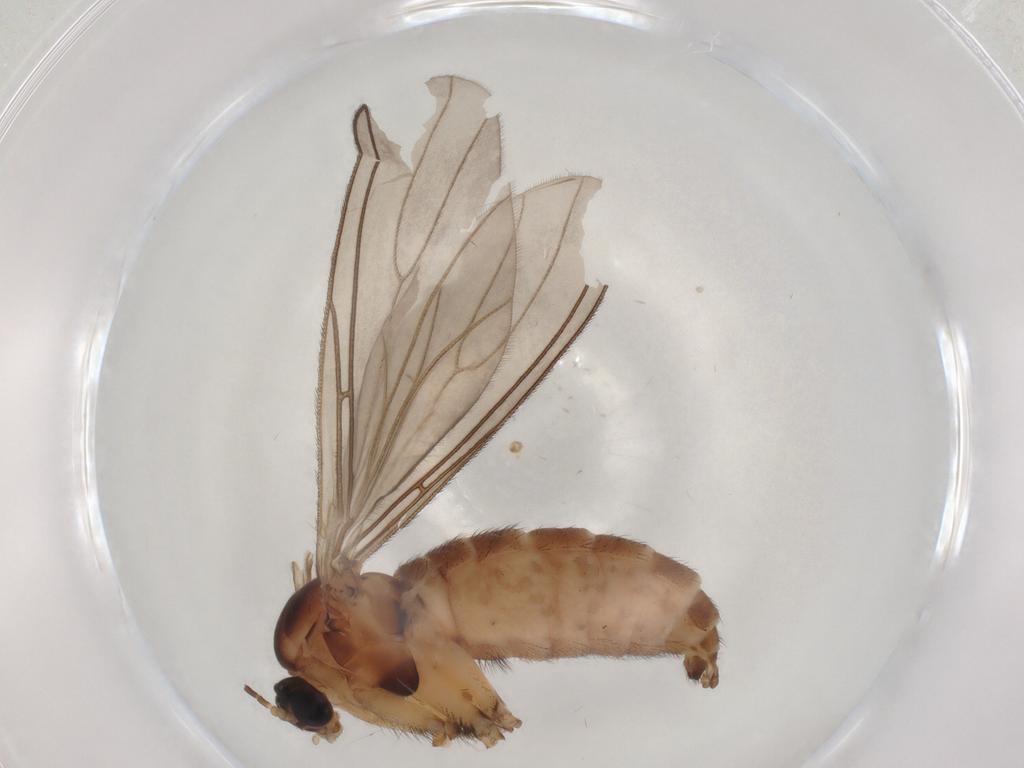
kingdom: Animalia
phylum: Arthropoda
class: Insecta
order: Diptera
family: Sciaridae
